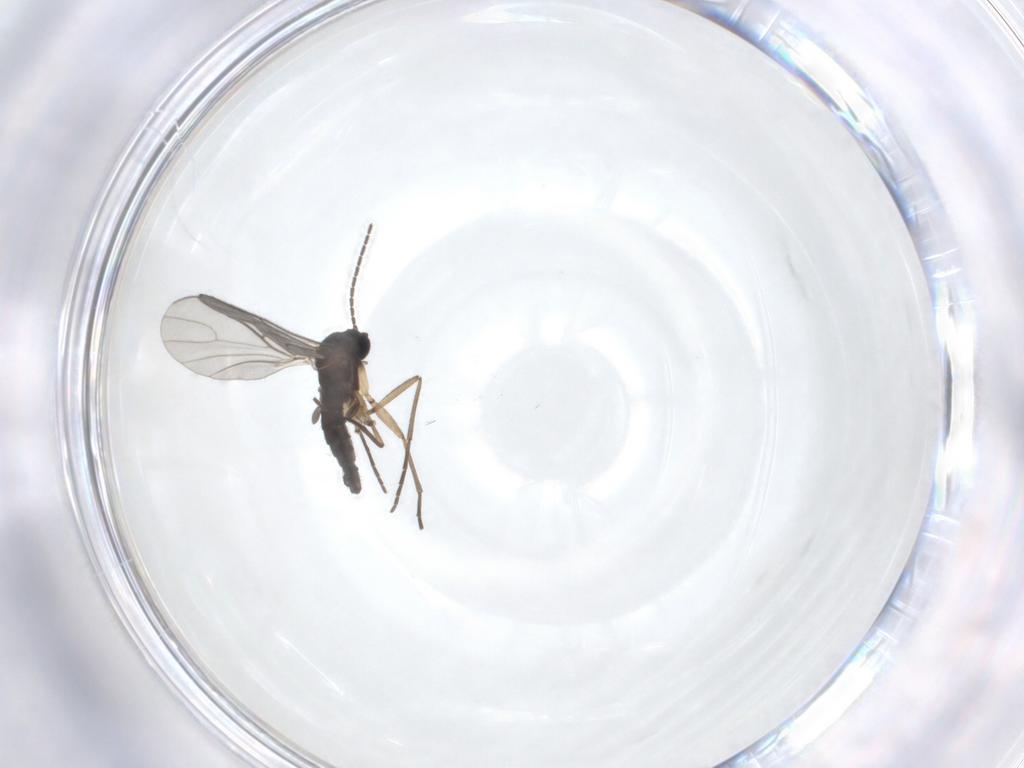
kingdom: Animalia
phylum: Arthropoda
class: Insecta
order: Diptera
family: Sciaridae
